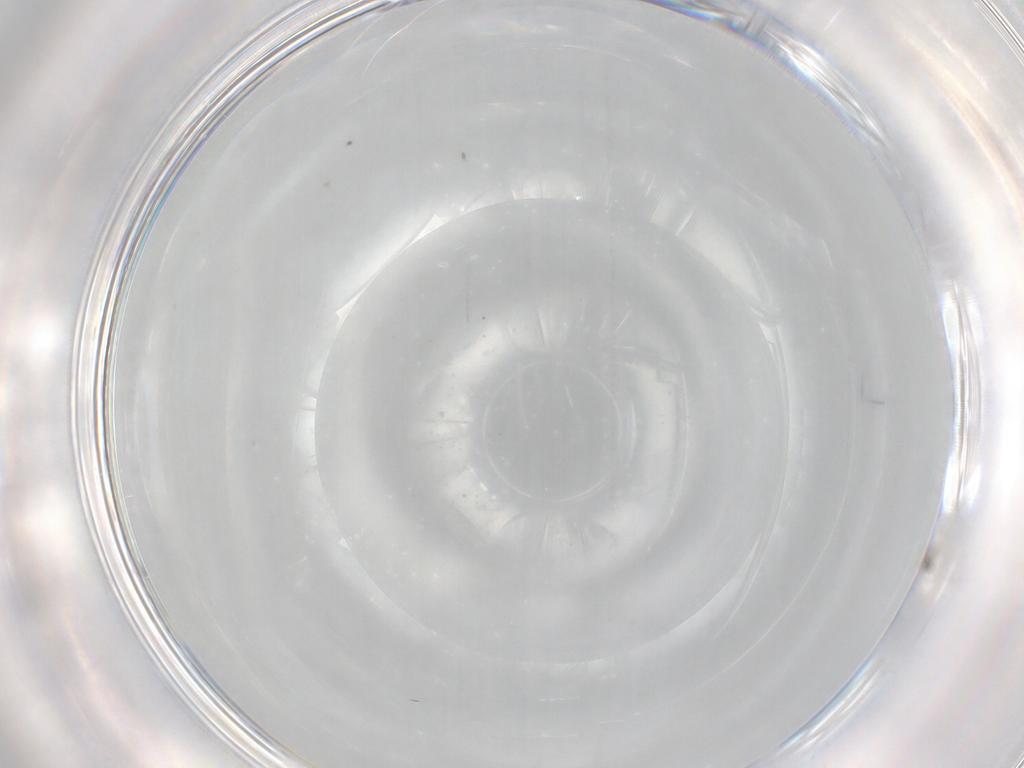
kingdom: Animalia
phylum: Arthropoda
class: Insecta
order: Hymenoptera
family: Mymaridae
